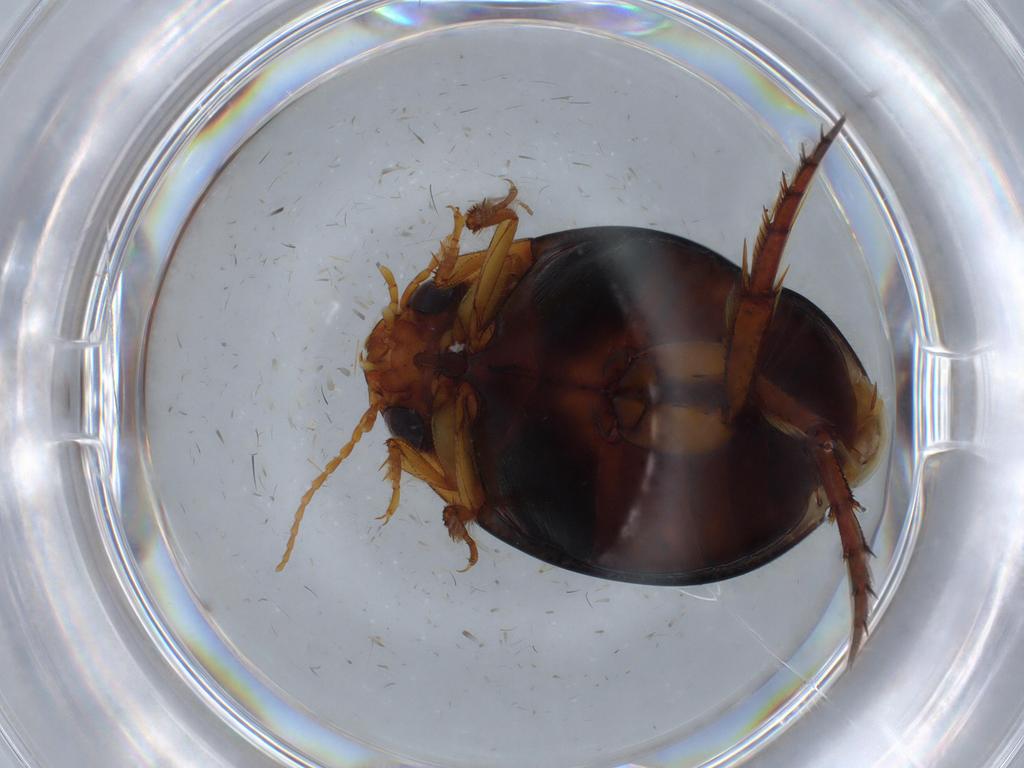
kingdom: Animalia
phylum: Arthropoda
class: Insecta
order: Coleoptera
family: Dytiscidae
